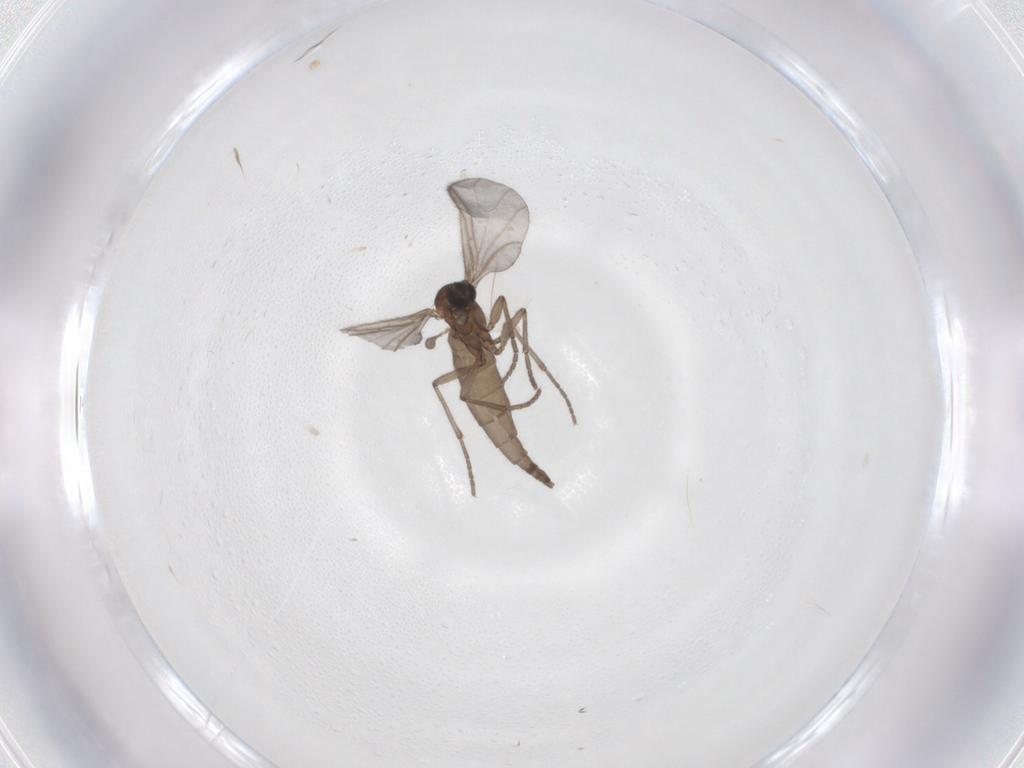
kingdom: Animalia
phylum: Arthropoda
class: Insecta
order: Diptera
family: Sciaridae
